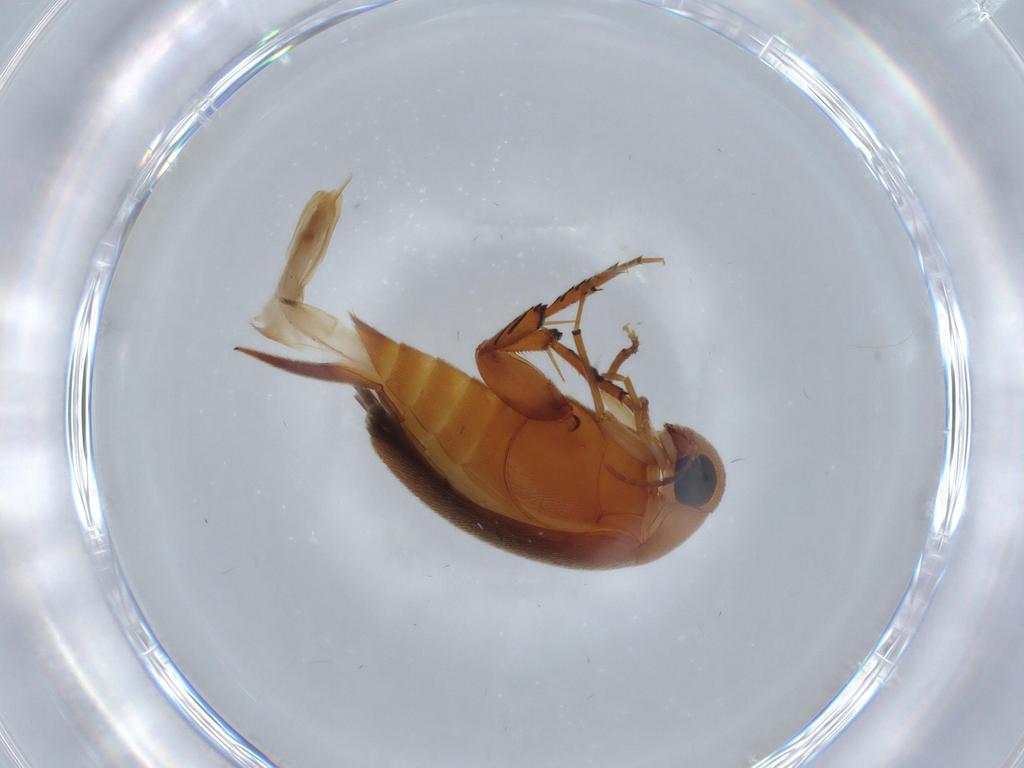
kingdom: Animalia
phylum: Arthropoda
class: Insecta
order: Coleoptera
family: Mordellidae
